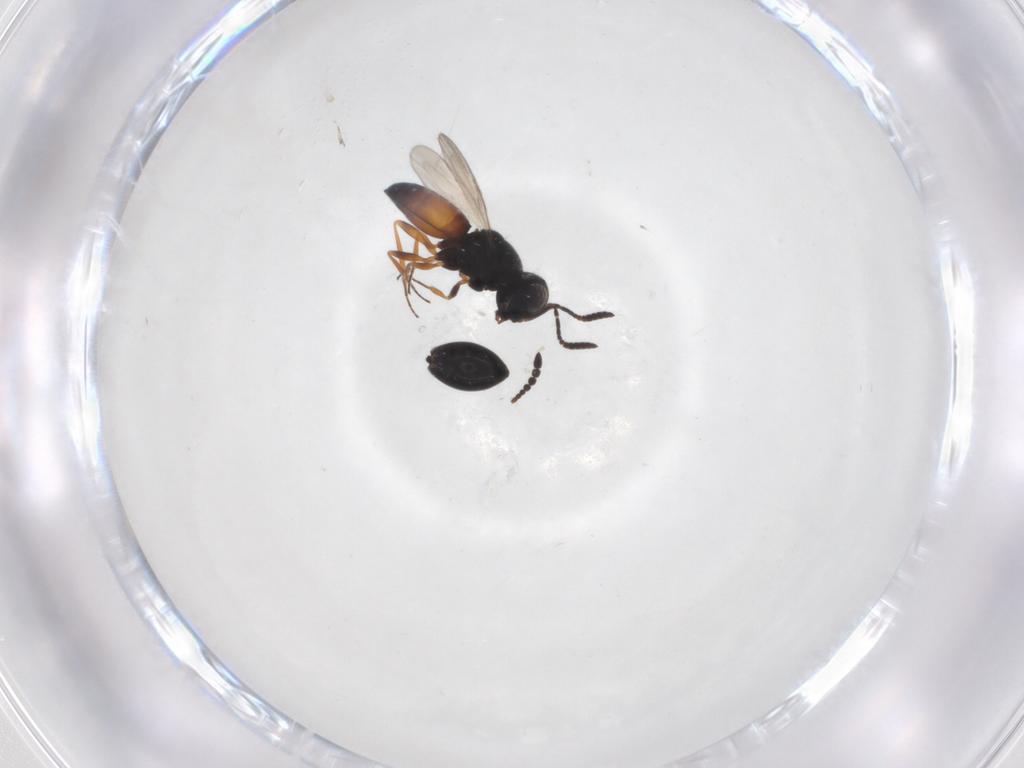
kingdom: Animalia
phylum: Arthropoda
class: Insecta
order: Hymenoptera
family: Diapriidae
